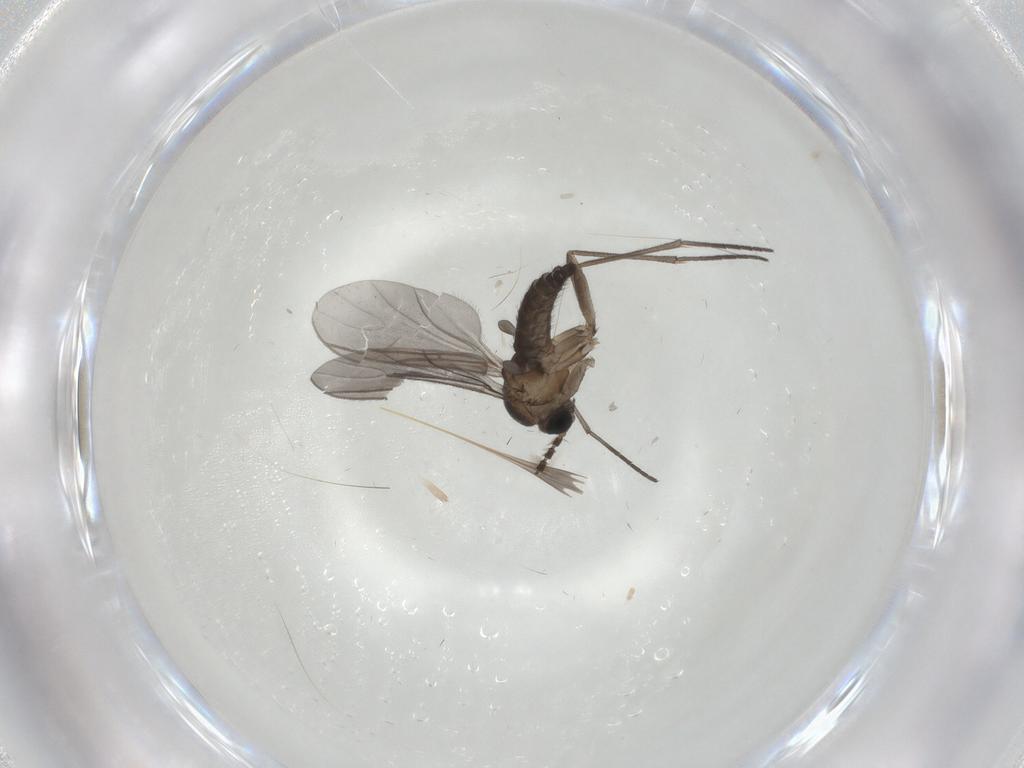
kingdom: Animalia
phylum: Arthropoda
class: Insecta
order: Diptera
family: Sciaridae
